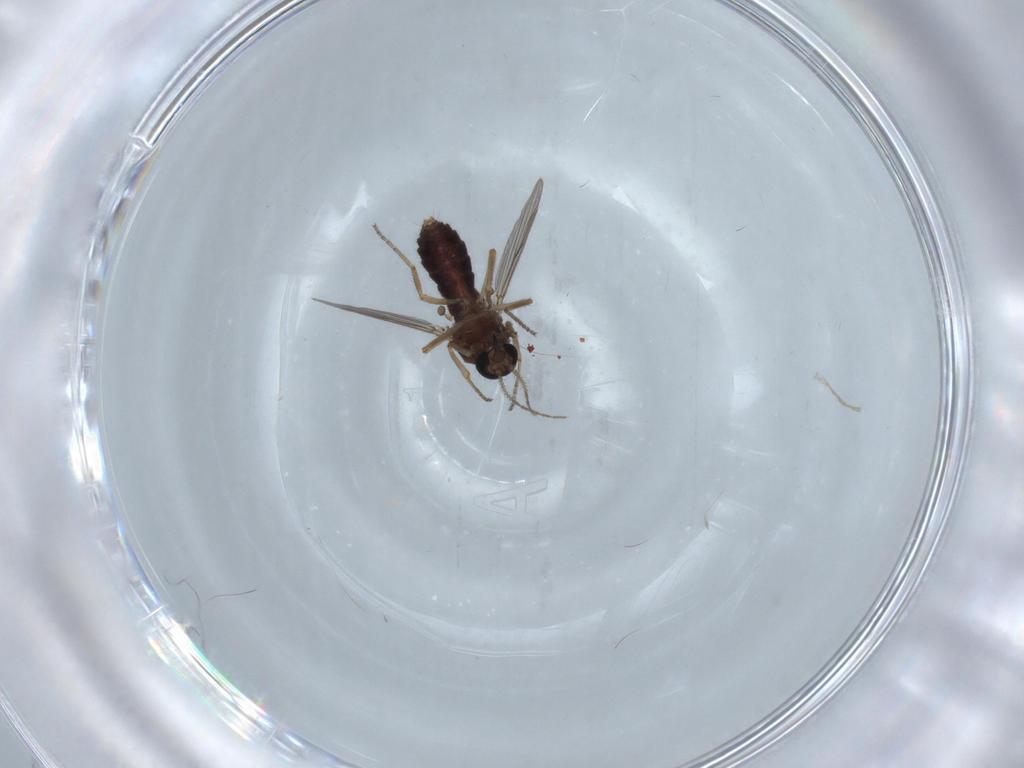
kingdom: Animalia
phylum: Arthropoda
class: Insecta
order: Diptera
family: Ceratopogonidae
